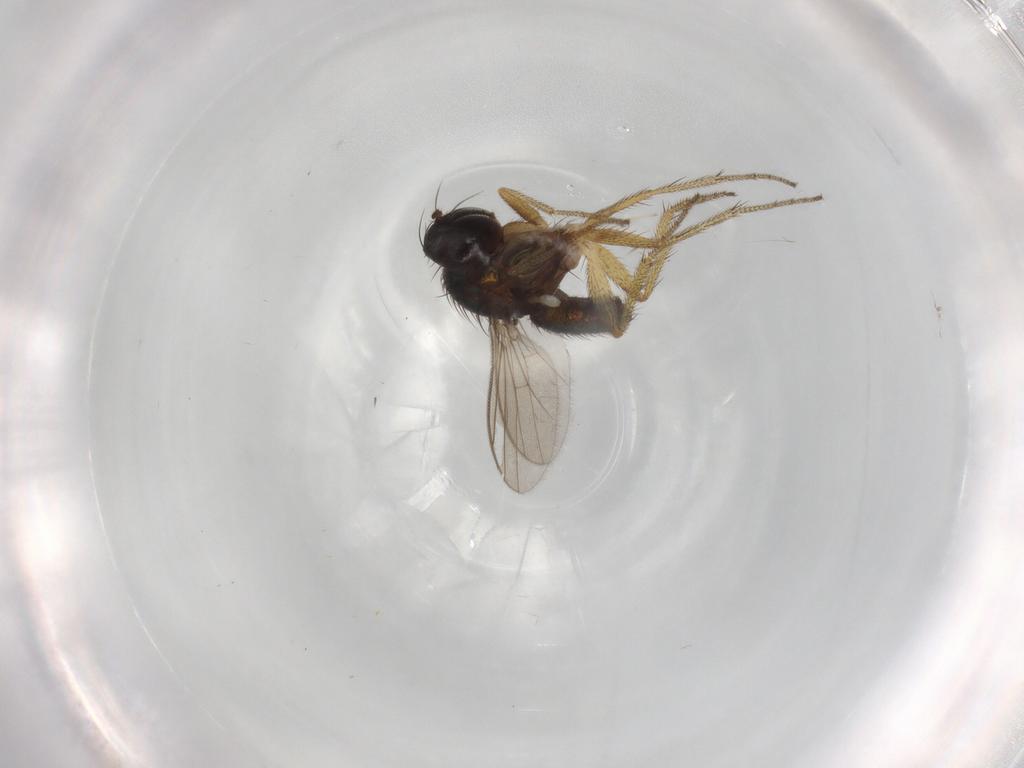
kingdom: Animalia
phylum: Arthropoda
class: Insecta
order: Diptera
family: Dolichopodidae
